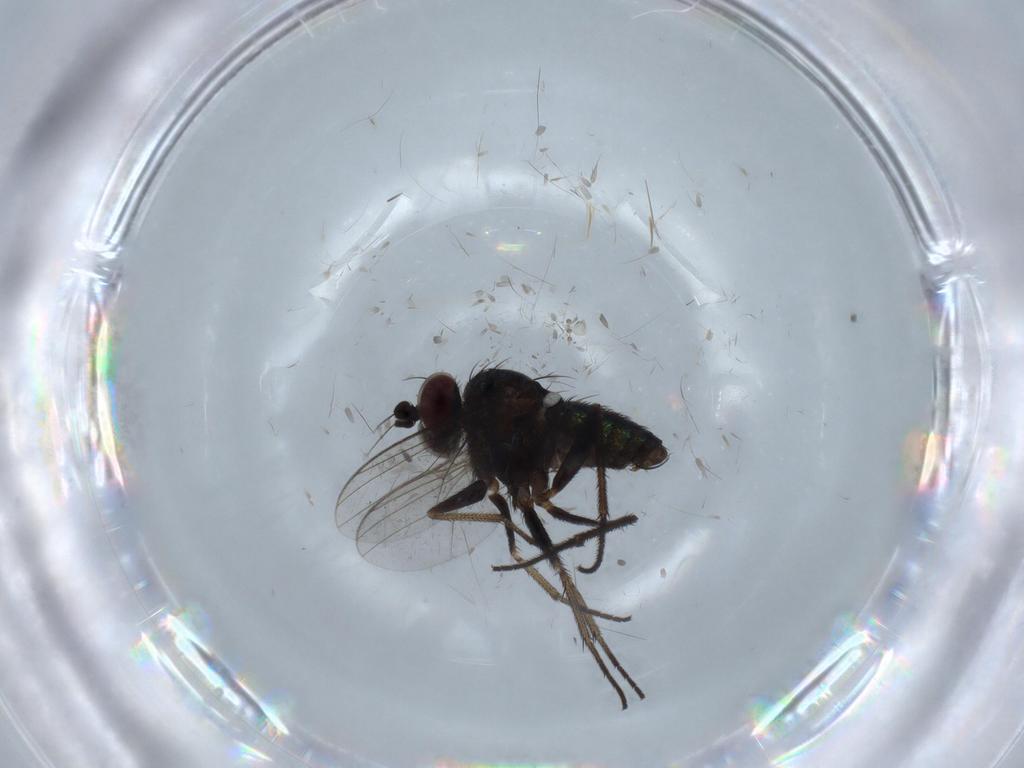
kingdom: Animalia
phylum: Arthropoda
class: Insecta
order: Diptera
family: Dolichopodidae
